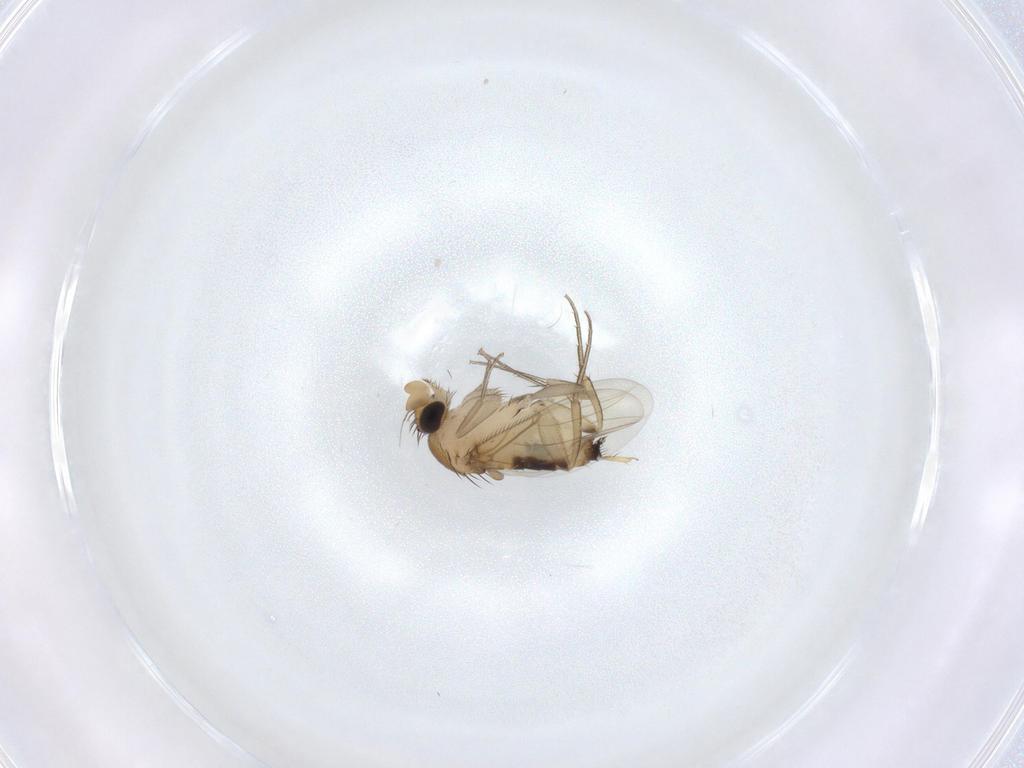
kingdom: Animalia
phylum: Arthropoda
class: Insecta
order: Diptera
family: Phoridae
